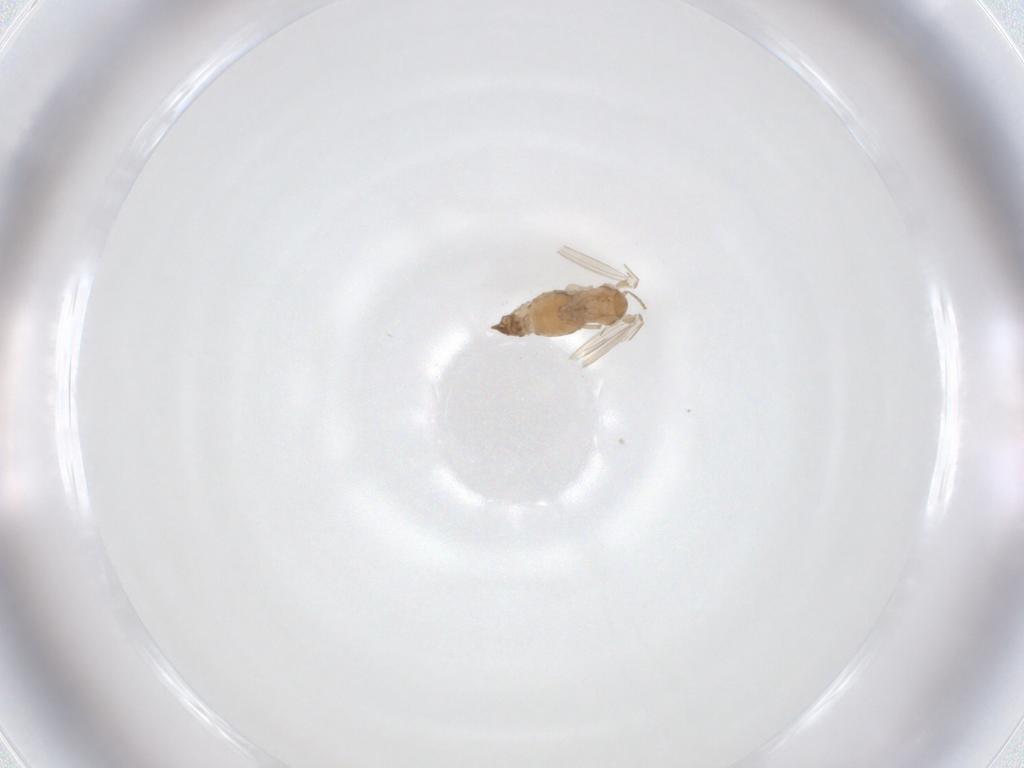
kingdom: Animalia
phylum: Arthropoda
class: Insecta
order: Diptera
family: Psychodidae
